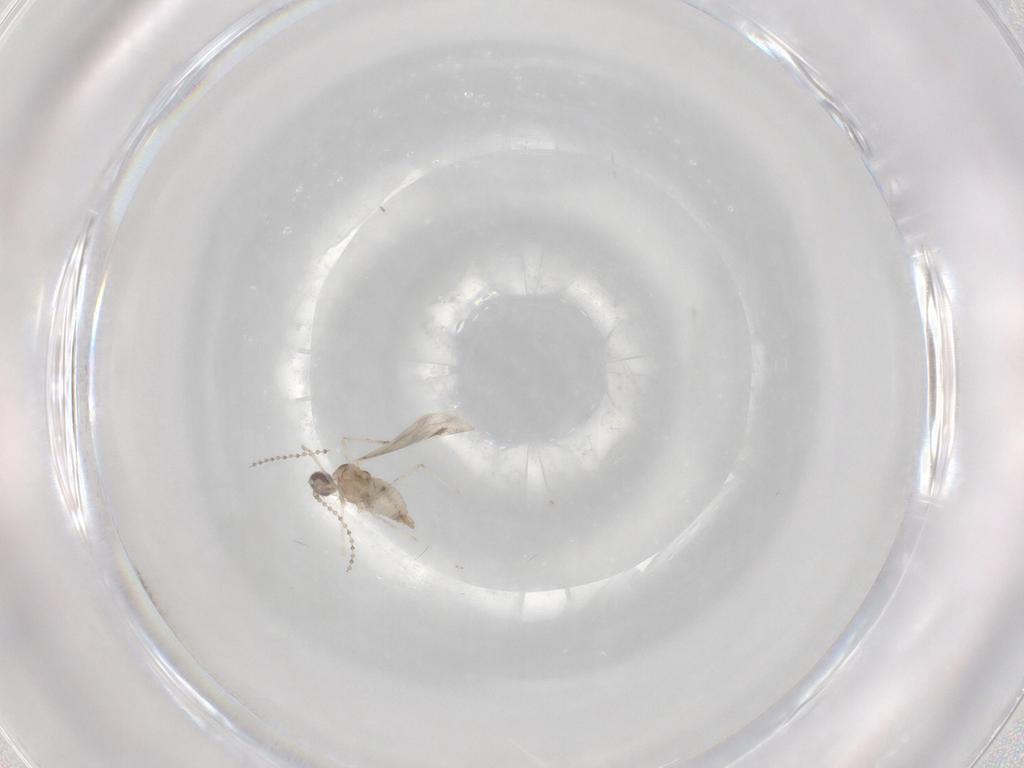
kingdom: Animalia
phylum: Arthropoda
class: Insecta
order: Diptera
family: Cecidomyiidae
